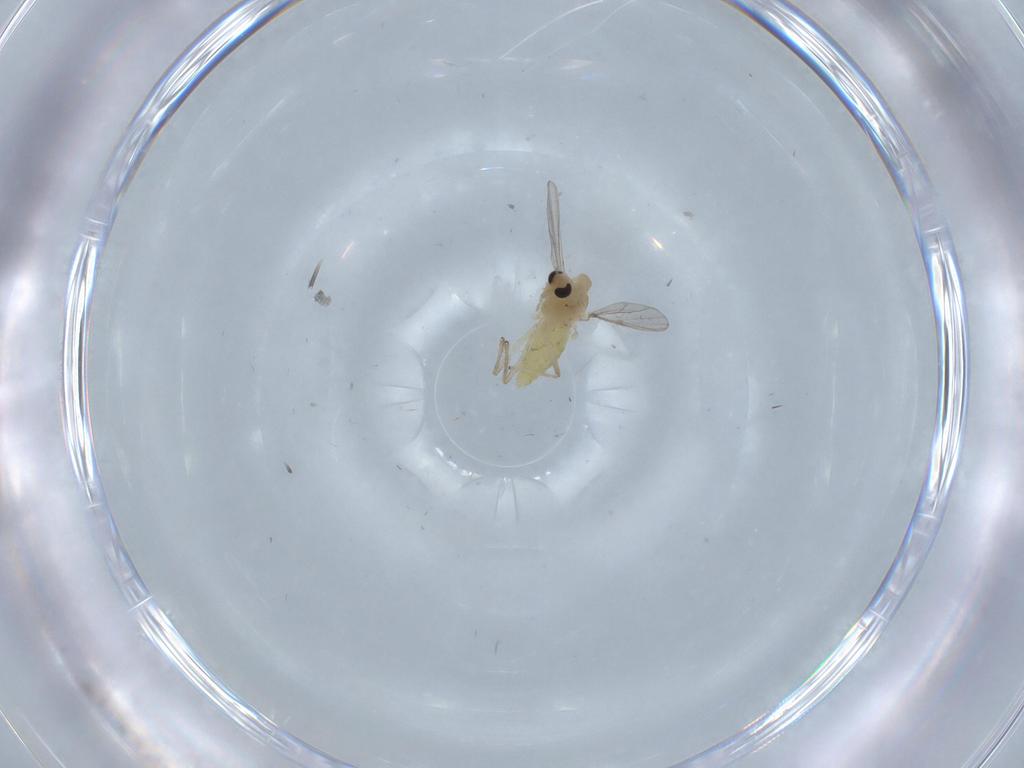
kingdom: Animalia
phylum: Arthropoda
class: Insecta
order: Diptera
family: Chironomidae
